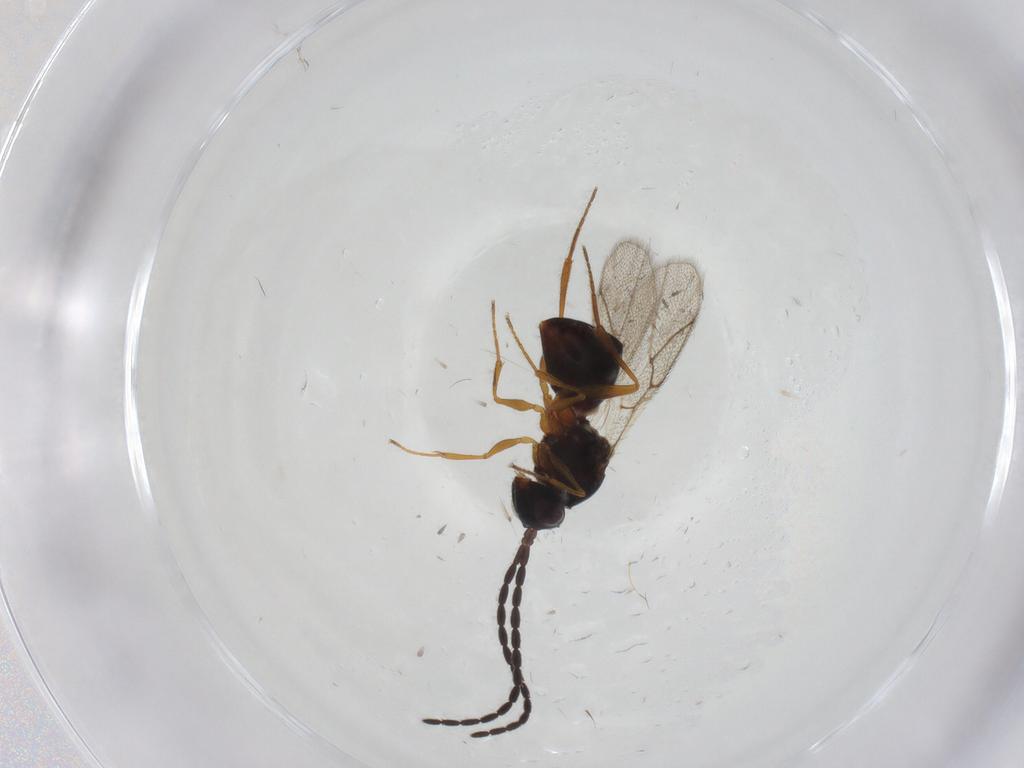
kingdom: Animalia
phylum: Arthropoda
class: Insecta
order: Hymenoptera
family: Figitidae
